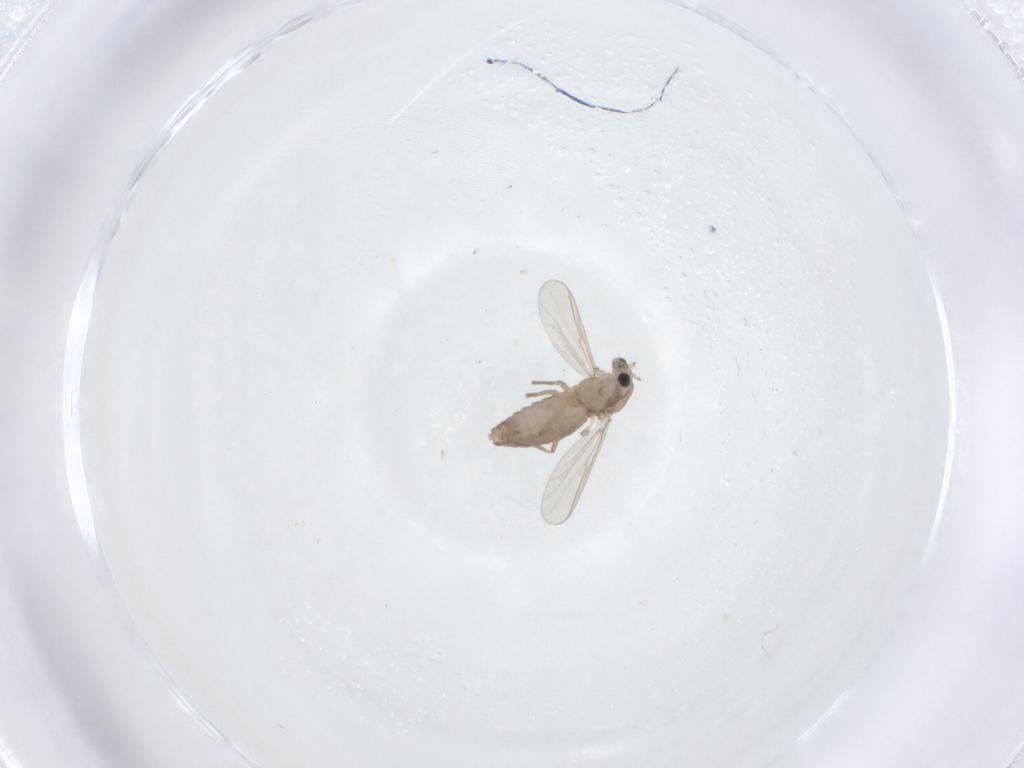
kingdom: Animalia
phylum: Arthropoda
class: Insecta
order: Diptera
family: Chironomidae
